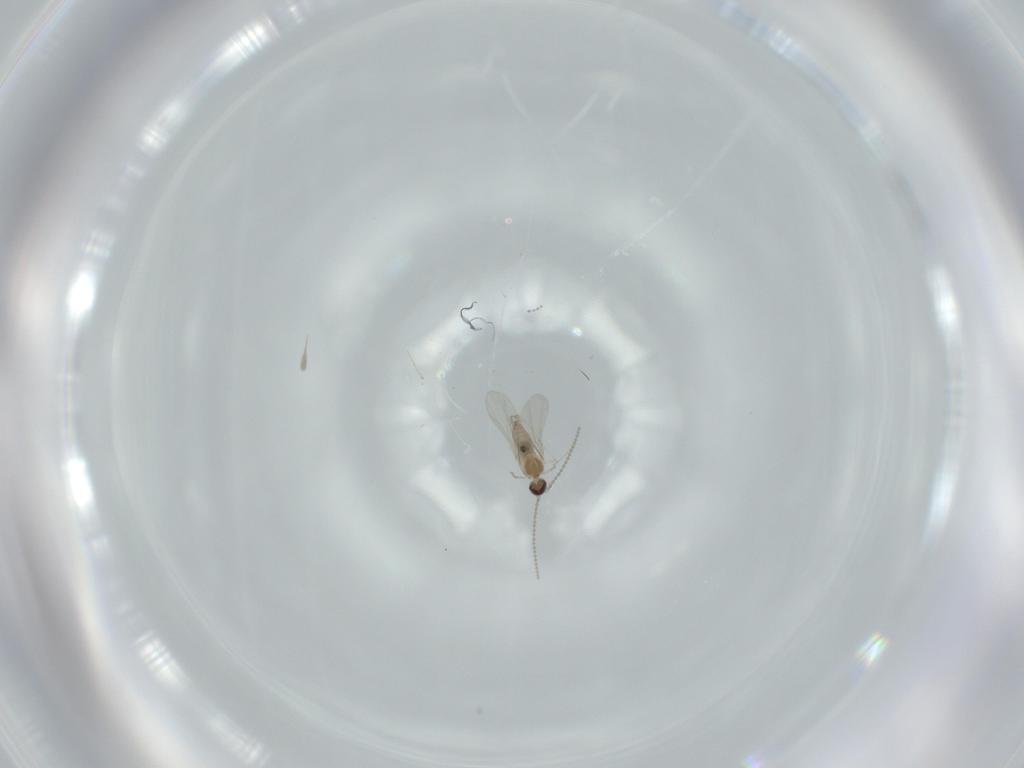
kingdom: Animalia
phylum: Arthropoda
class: Insecta
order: Diptera
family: Cecidomyiidae
